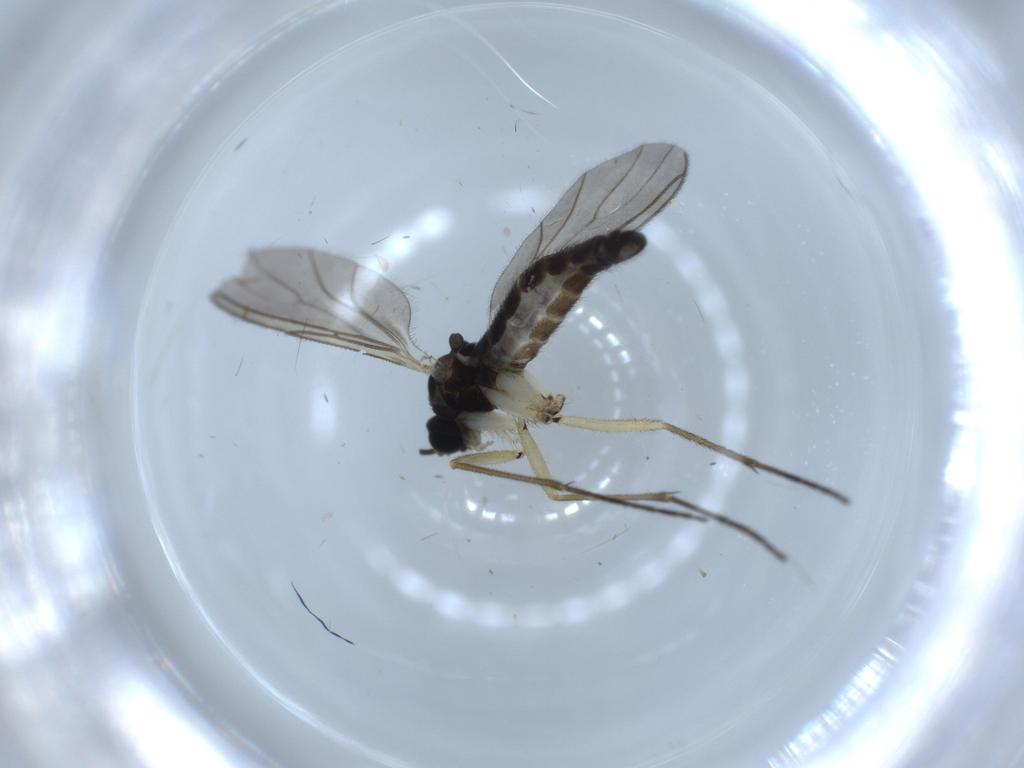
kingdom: Animalia
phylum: Arthropoda
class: Insecta
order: Diptera
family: Sciaridae
